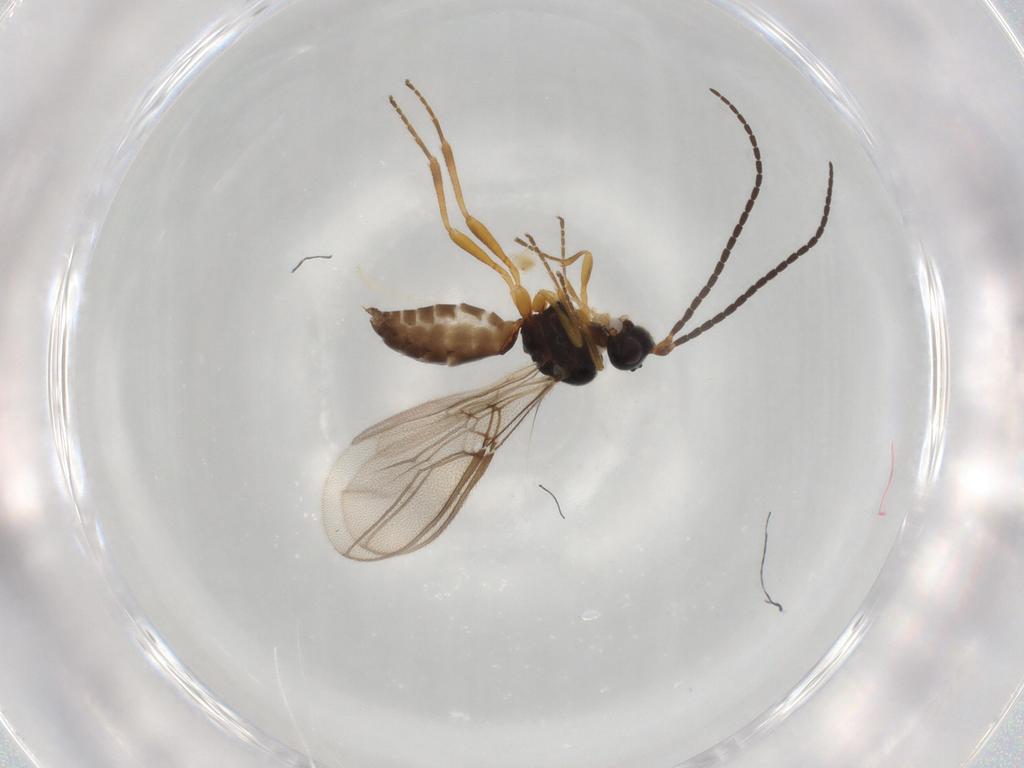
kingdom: Animalia
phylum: Arthropoda
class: Insecta
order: Hymenoptera
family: Braconidae
